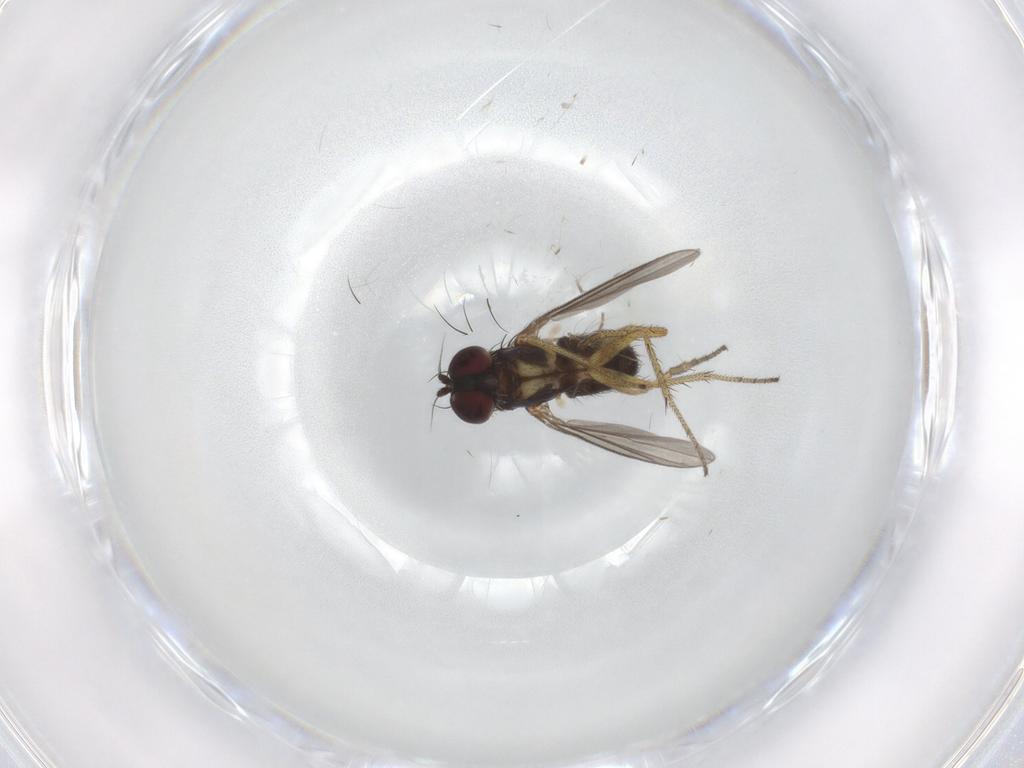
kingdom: Animalia
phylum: Arthropoda
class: Insecta
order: Diptera
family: Chironomidae
